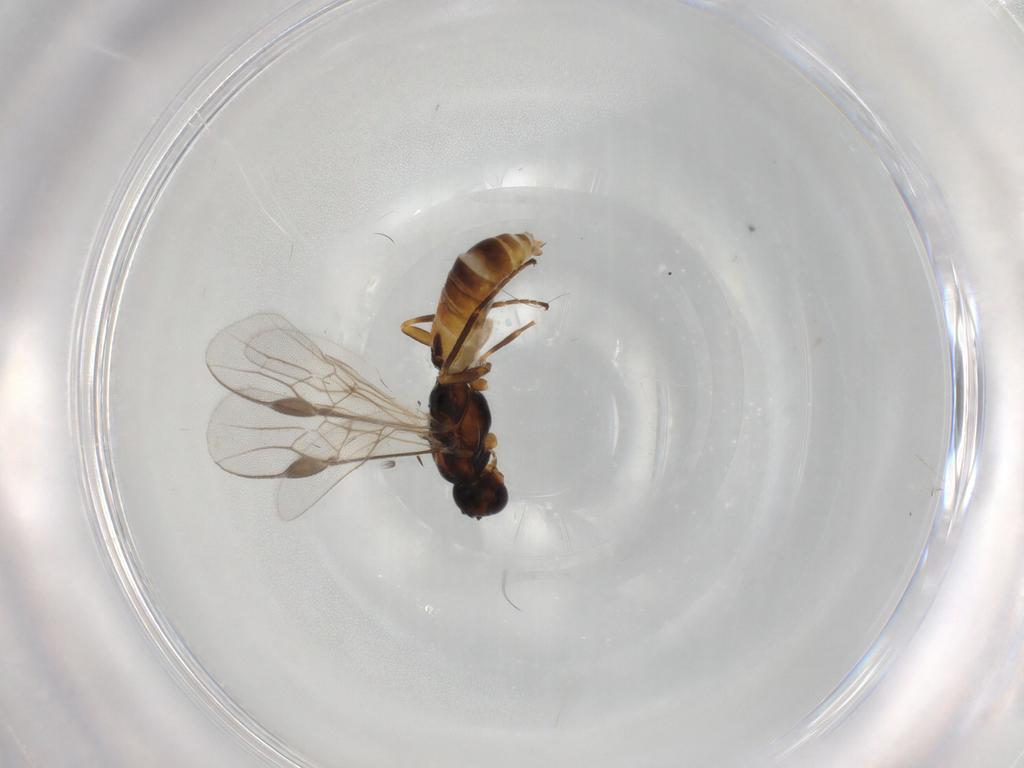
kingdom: Animalia
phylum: Arthropoda
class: Insecta
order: Hymenoptera
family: Braconidae
